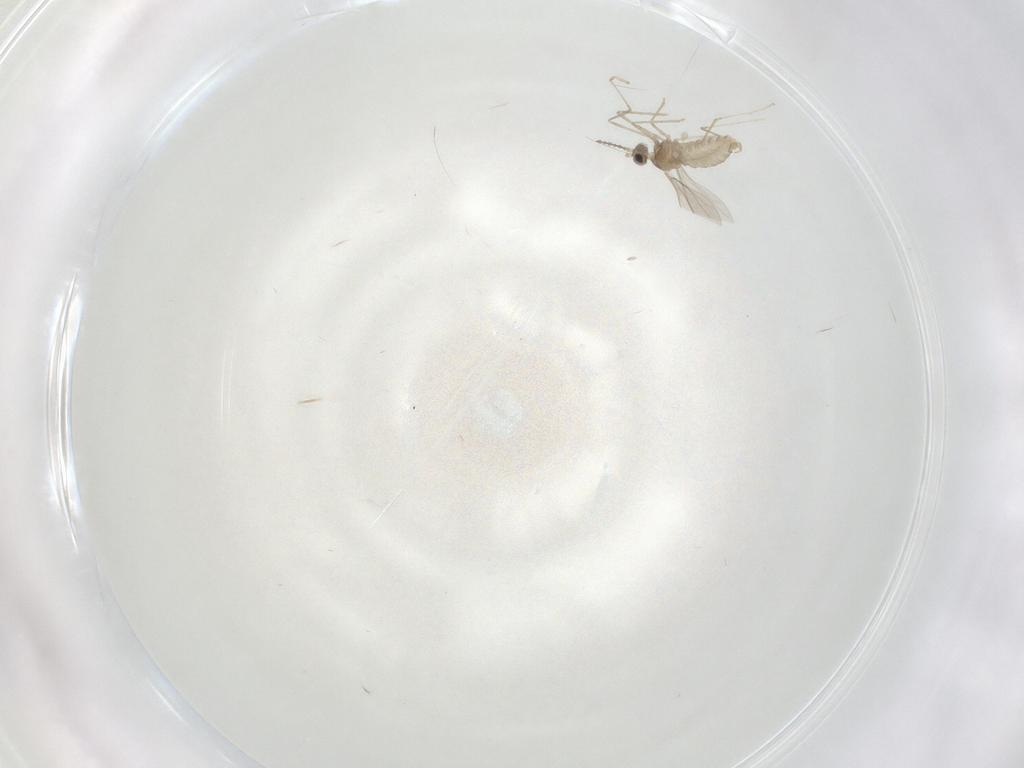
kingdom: Animalia
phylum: Arthropoda
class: Insecta
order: Diptera
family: Cecidomyiidae
